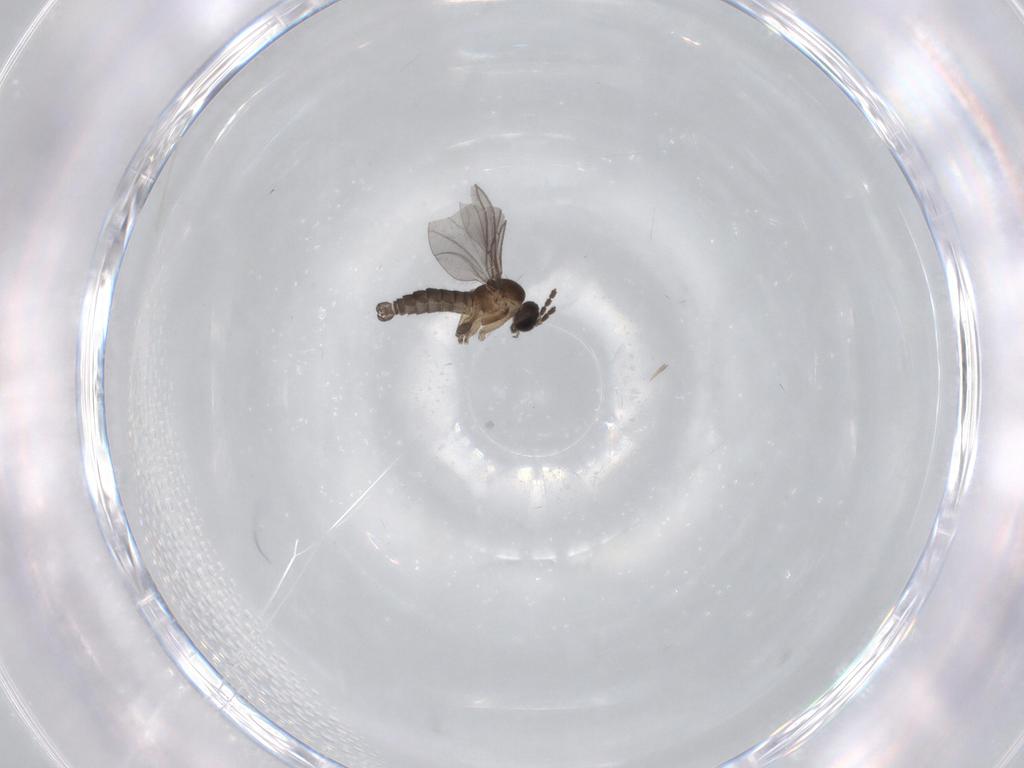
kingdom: Animalia
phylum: Arthropoda
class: Insecta
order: Diptera
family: Sciaridae
